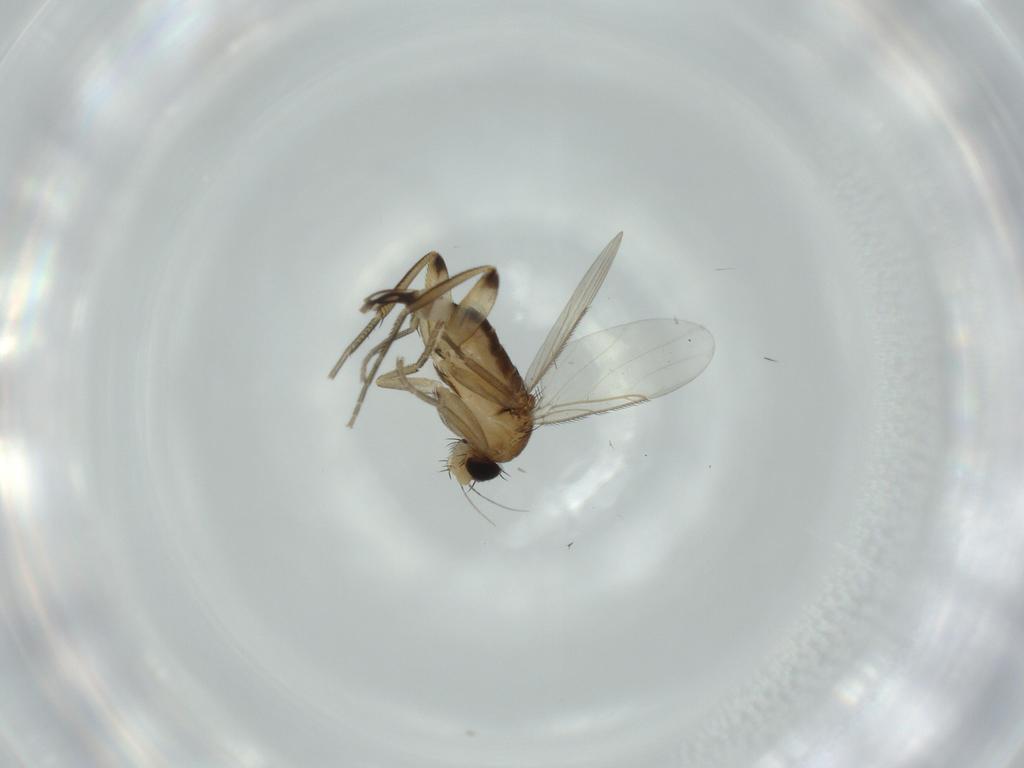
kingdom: Animalia
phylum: Arthropoda
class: Insecta
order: Diptera
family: Phoridae
